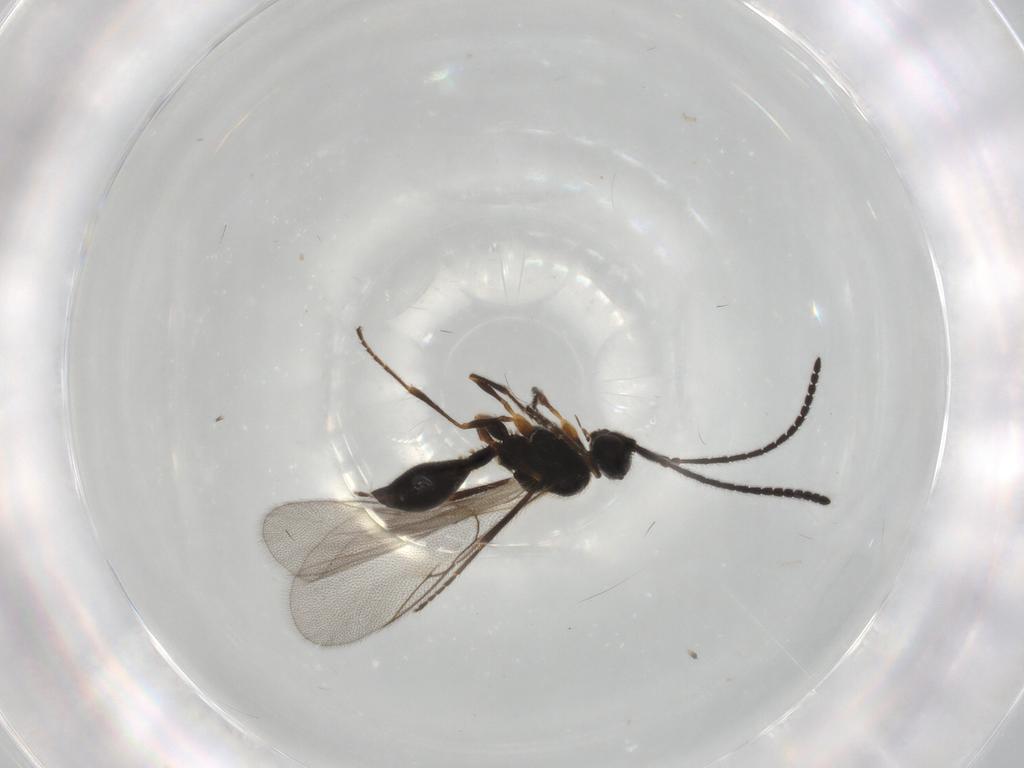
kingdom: Animalia
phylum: Arthropoda
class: Insecta
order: Hymenoptera
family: Diapriidae
